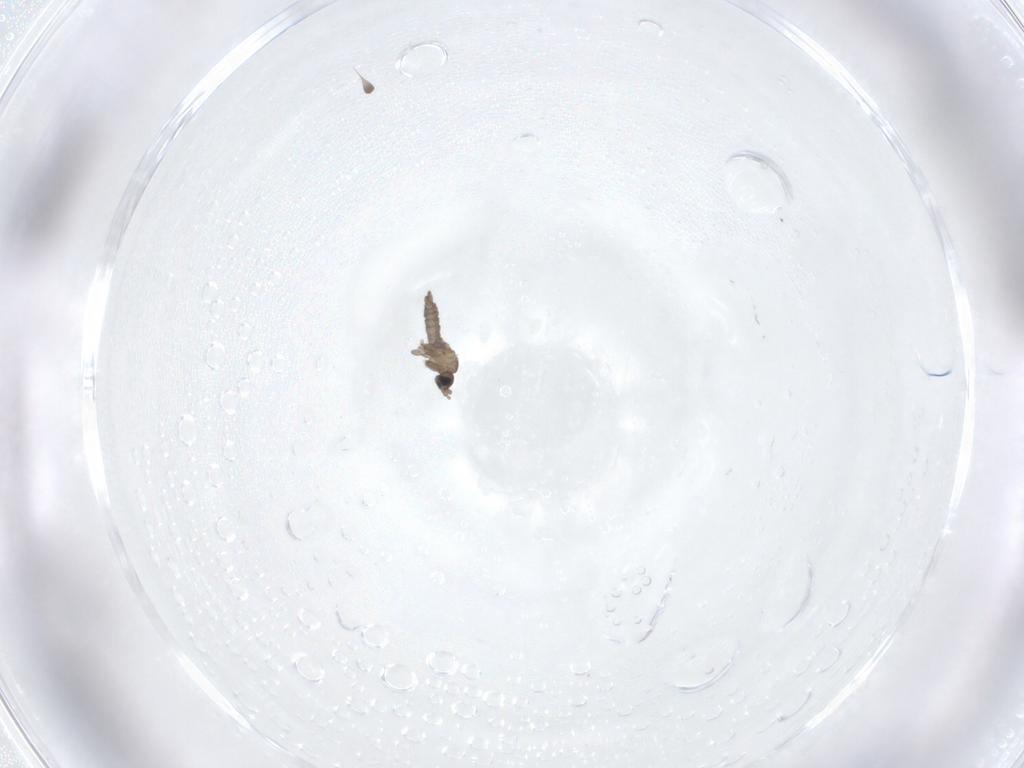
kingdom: Animalia
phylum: Arthropoda
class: Insecta
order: Diptera
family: Sciaridae
